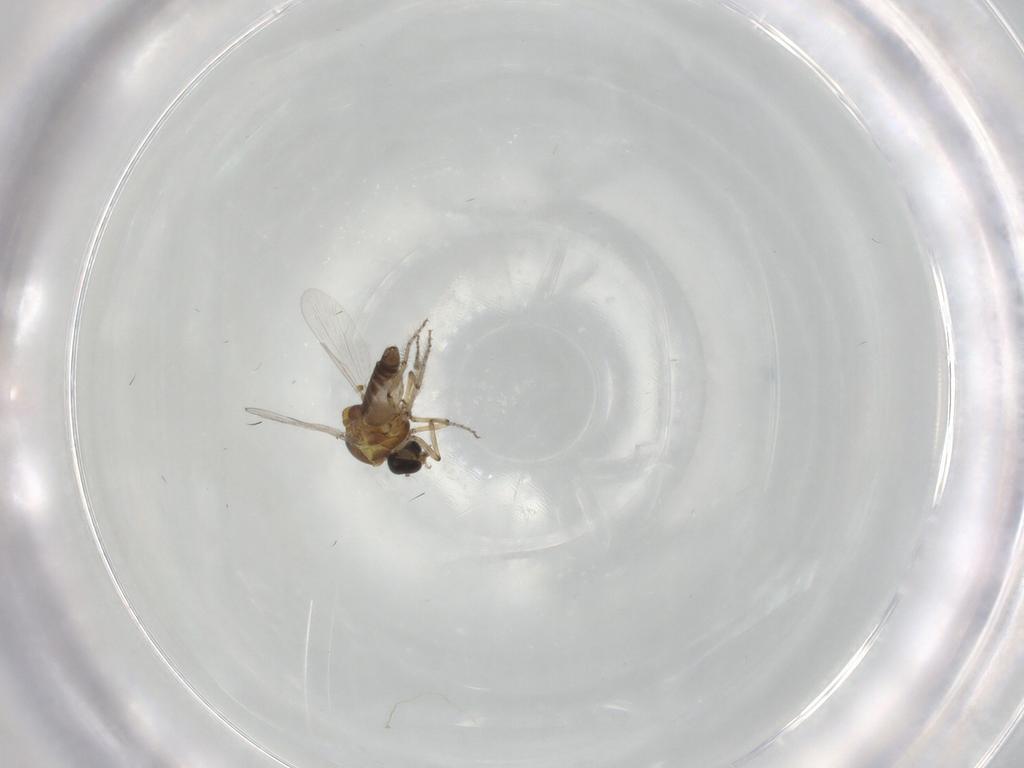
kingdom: Animalia
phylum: Arthropoda
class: Insecta
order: Diptera
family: Ceratopogonidae
